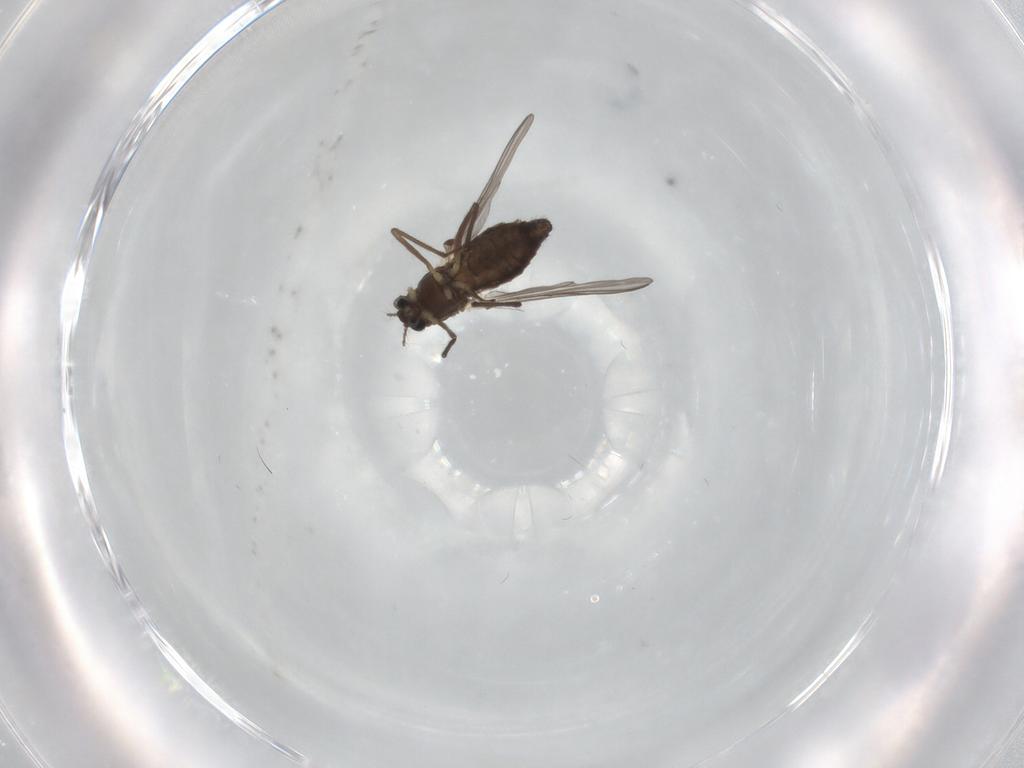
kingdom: Animalia
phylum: Arthropoda
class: Insecta
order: Diptera
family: Chironomidae
